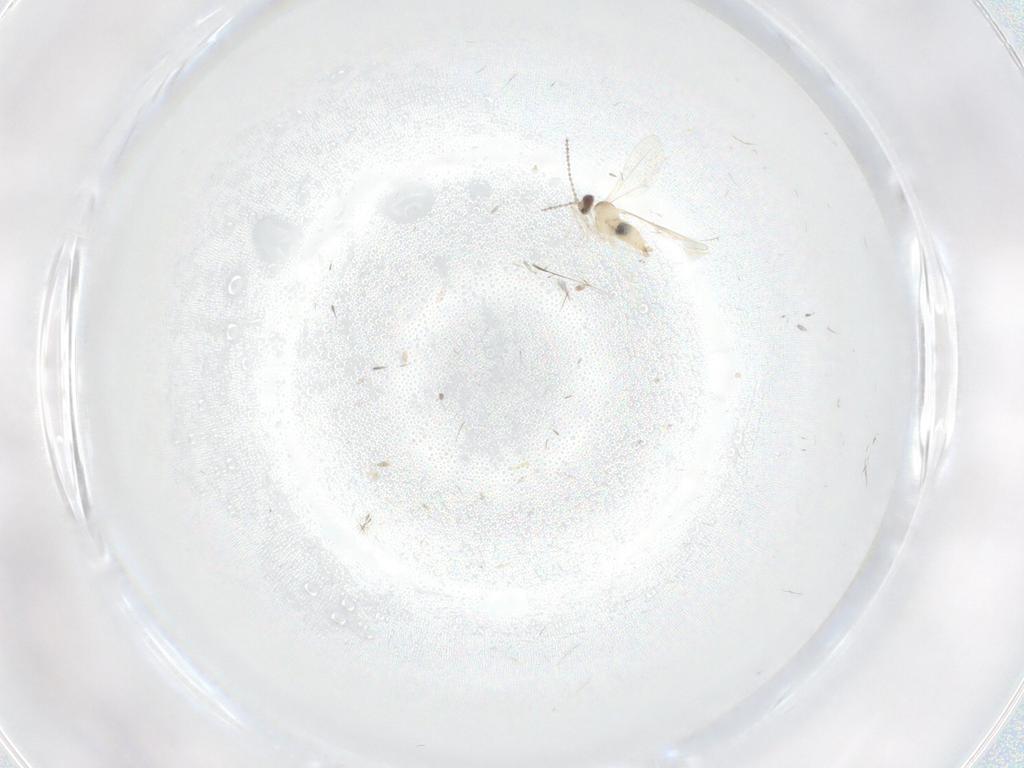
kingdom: Animalia
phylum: Arthropoda
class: Insecta
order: Diptera
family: Cecidomyiidae
